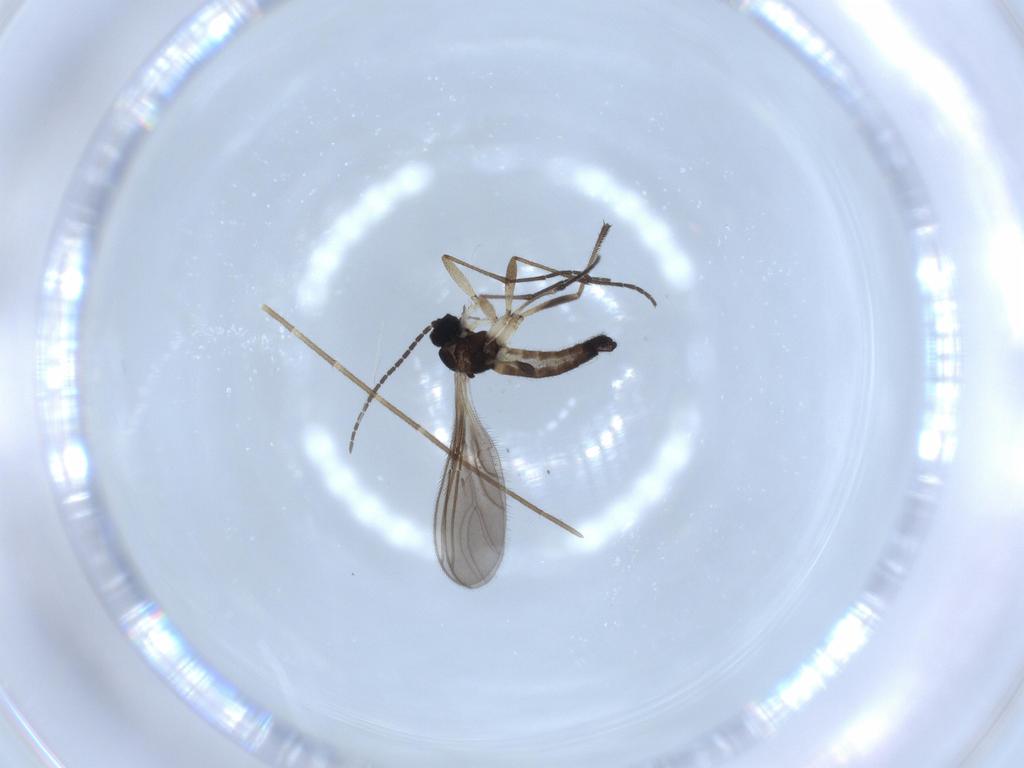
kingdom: Animalia
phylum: Arthropoda
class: Insecta
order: Diptera
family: Sciaridae
